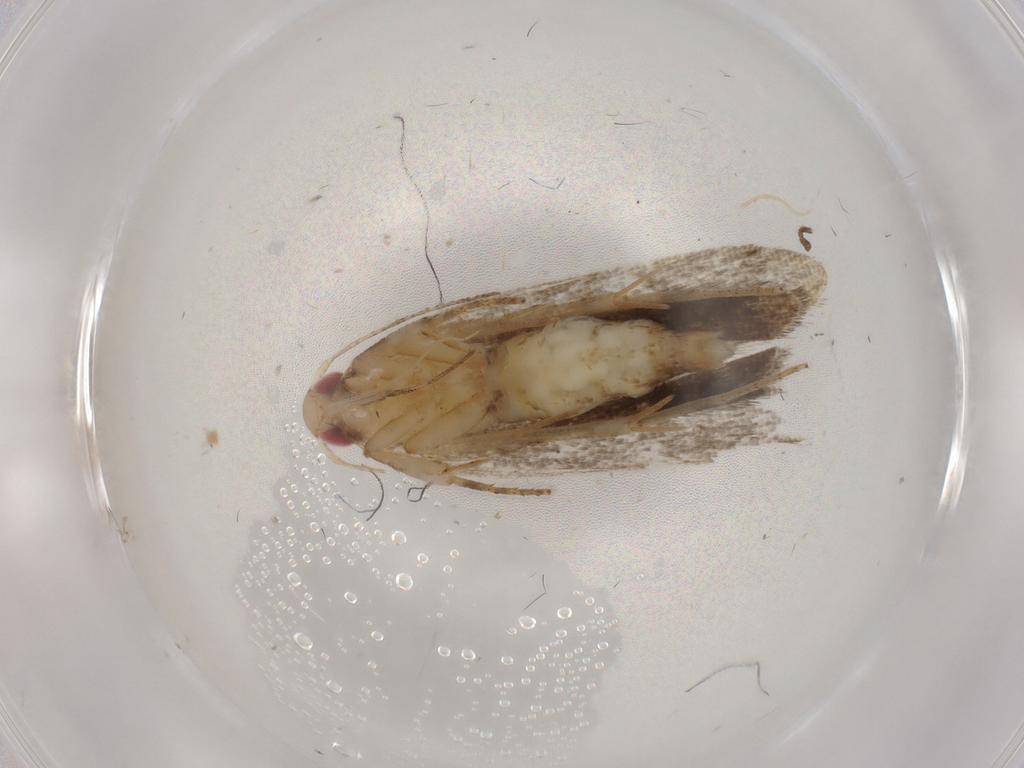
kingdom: Animalia
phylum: Arthropoda
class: Insecta
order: Lepidoptera
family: Gelechiidae
